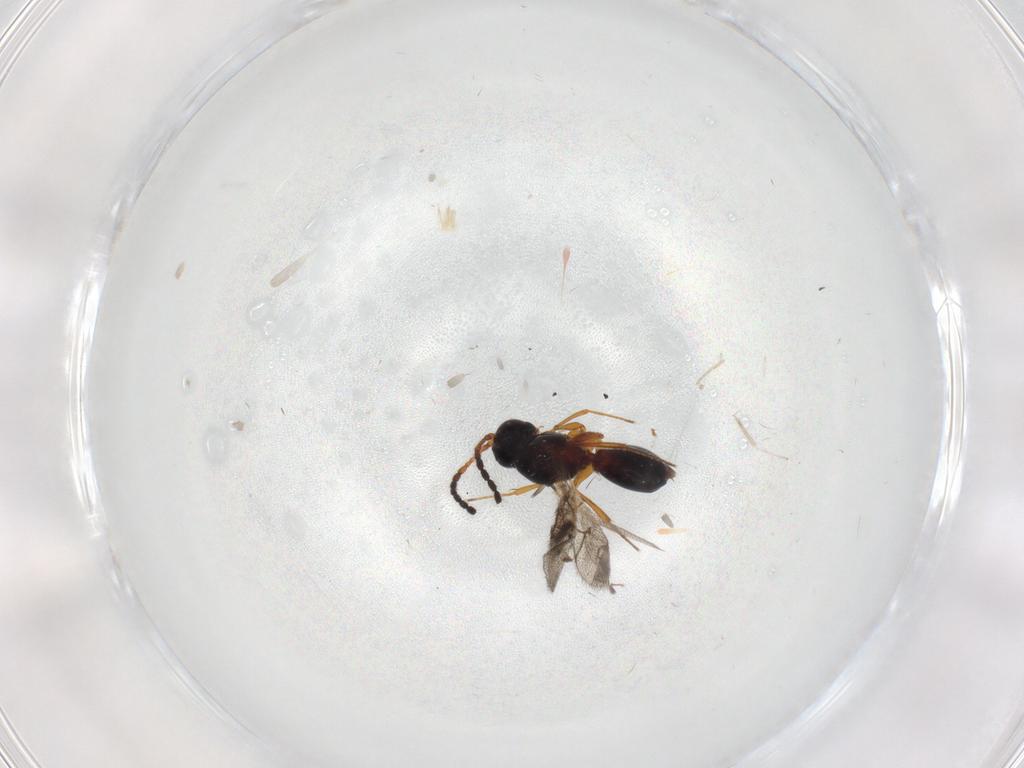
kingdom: Animalia
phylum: Arthropoda
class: Insecta
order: Hymenoptera
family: Figitidae
